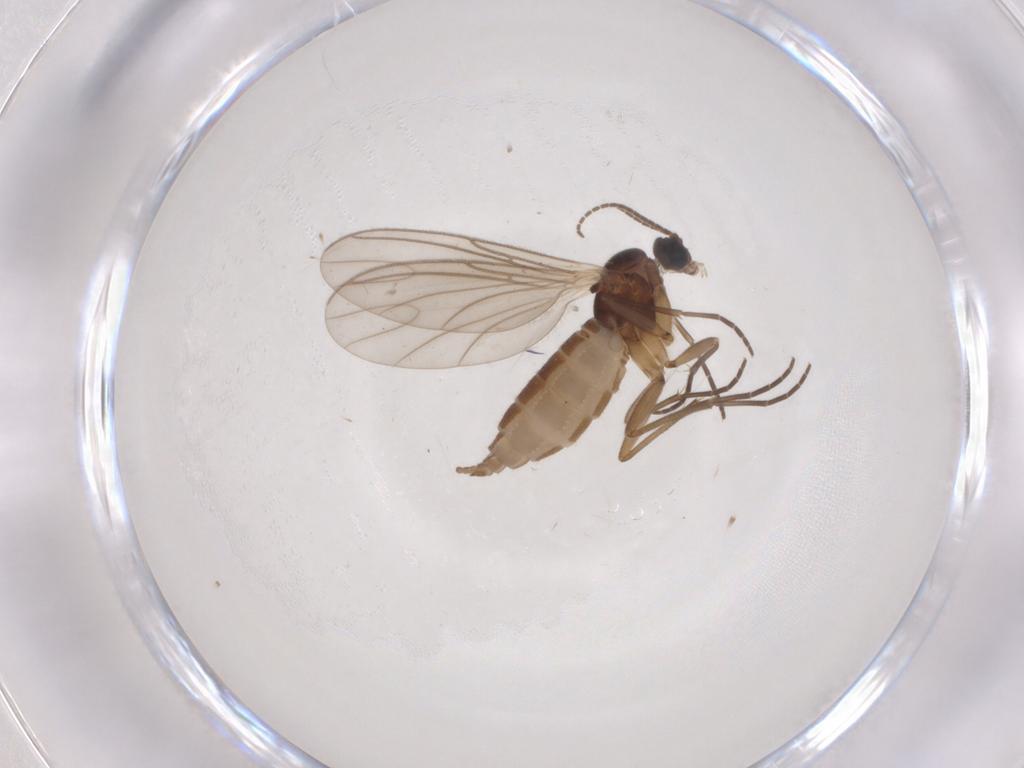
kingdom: Animalia
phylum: Arthropoda
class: Insecta
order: Diptera
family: Sciaridae
